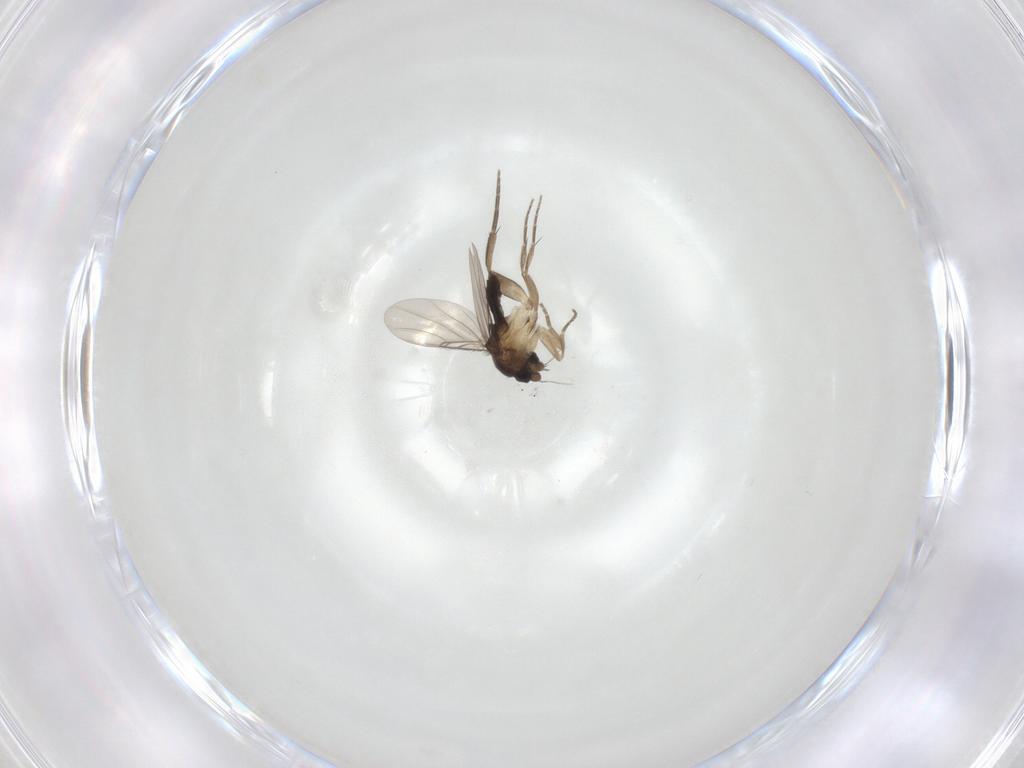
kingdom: Animalia
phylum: Arthropoda
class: Insecta
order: Diptera
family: Phoridae
